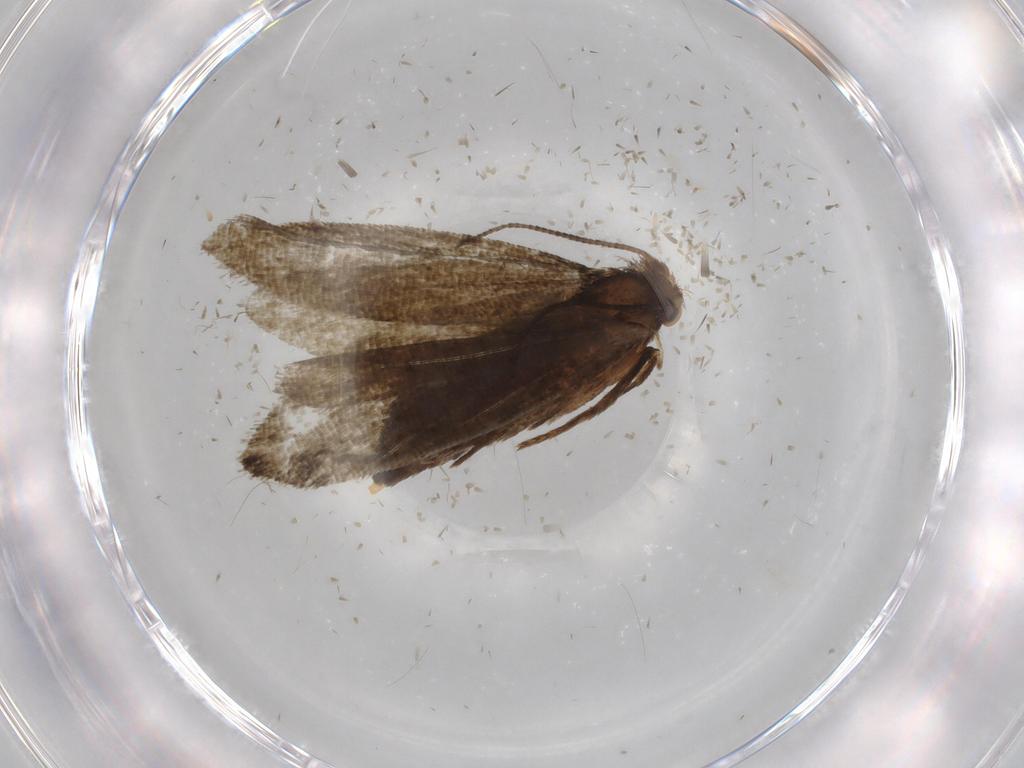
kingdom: Animalia
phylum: Arthropoda
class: Insecta
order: Lepidoptera
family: Tineidae
